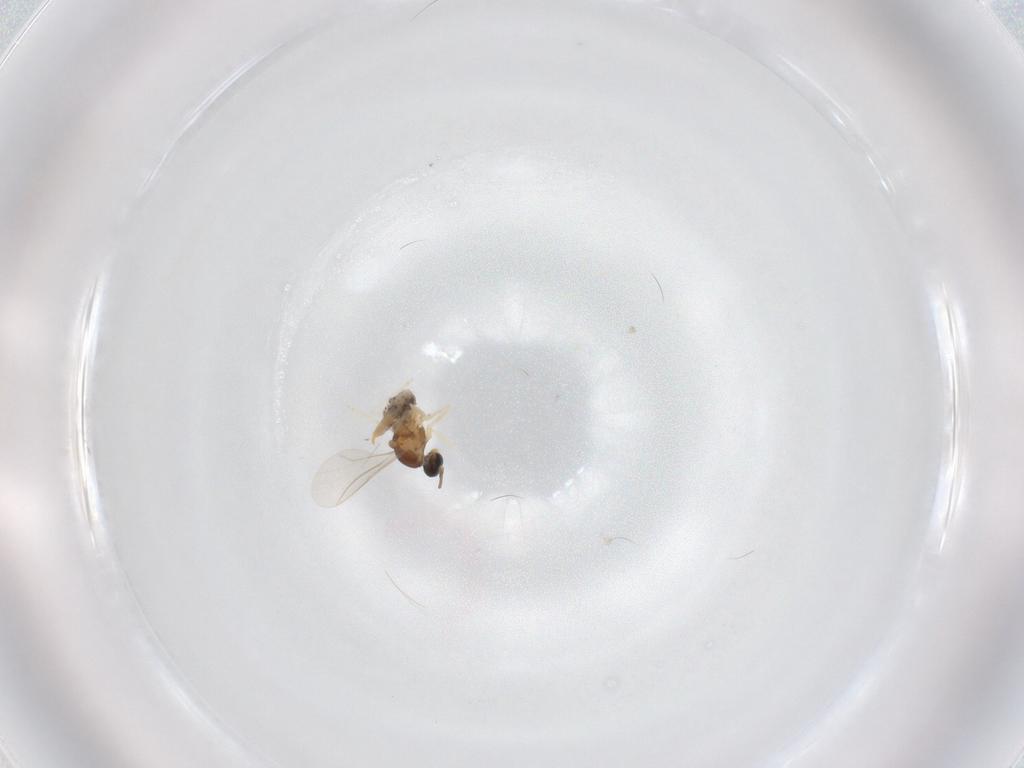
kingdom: Animalia
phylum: Arthropoda
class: Insecta
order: Diptera
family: Cecidomyiidae
